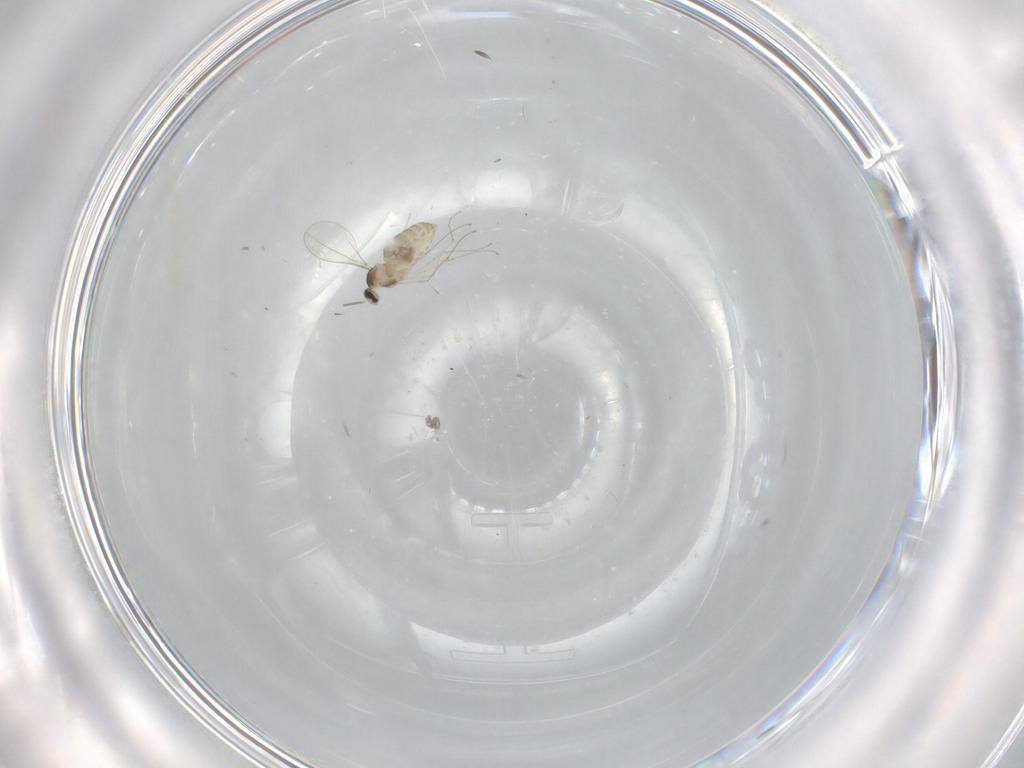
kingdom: Animalia
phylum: Arthropoda
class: Insecta
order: Diptera
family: Cecidomyiidae
